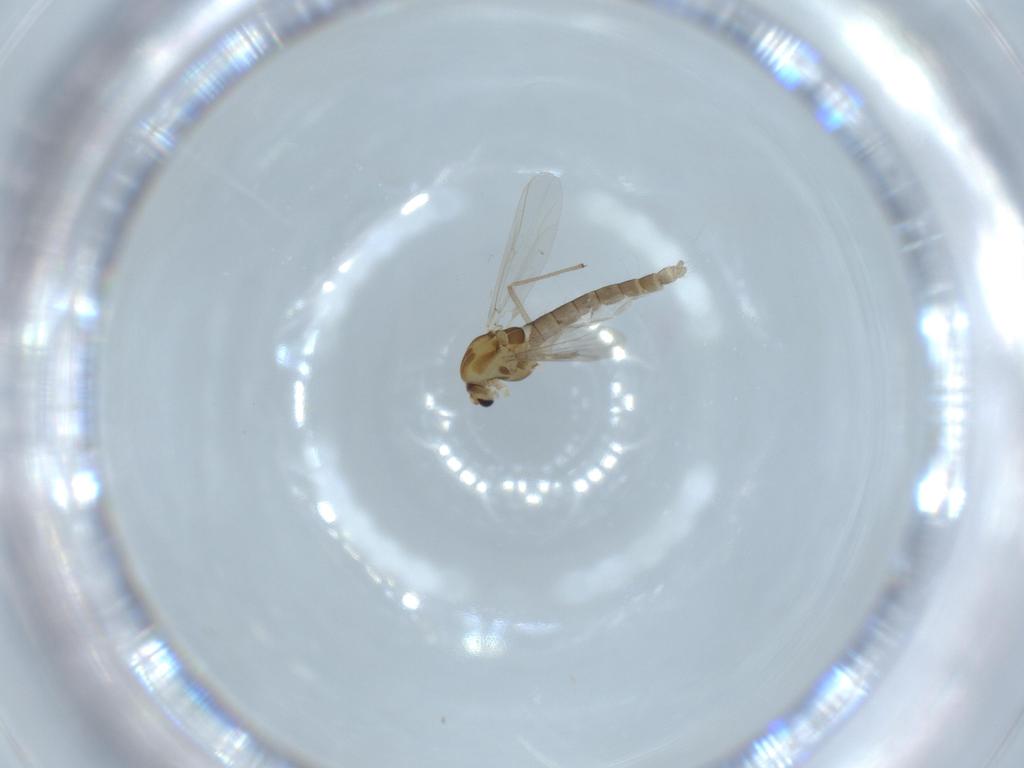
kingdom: Animalia
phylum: Arthropoda
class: Insecta
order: Diptera
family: Chironomidae
